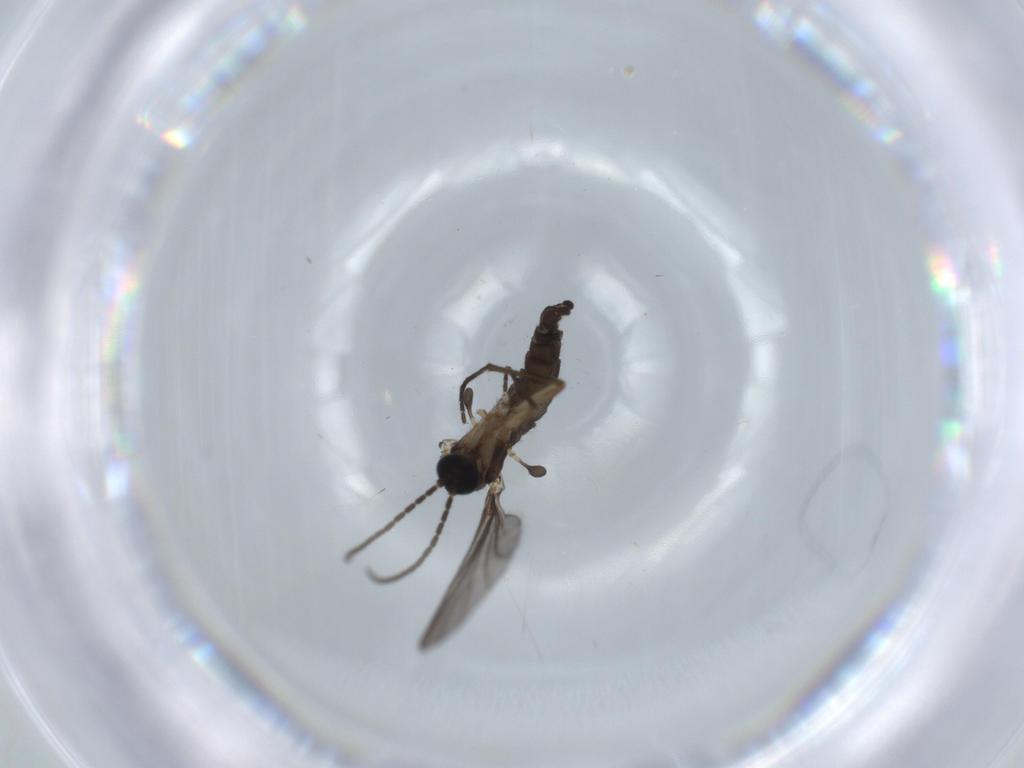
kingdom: Animalia
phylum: Arthropoda
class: Insecta
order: Diptera
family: Sciaridae
